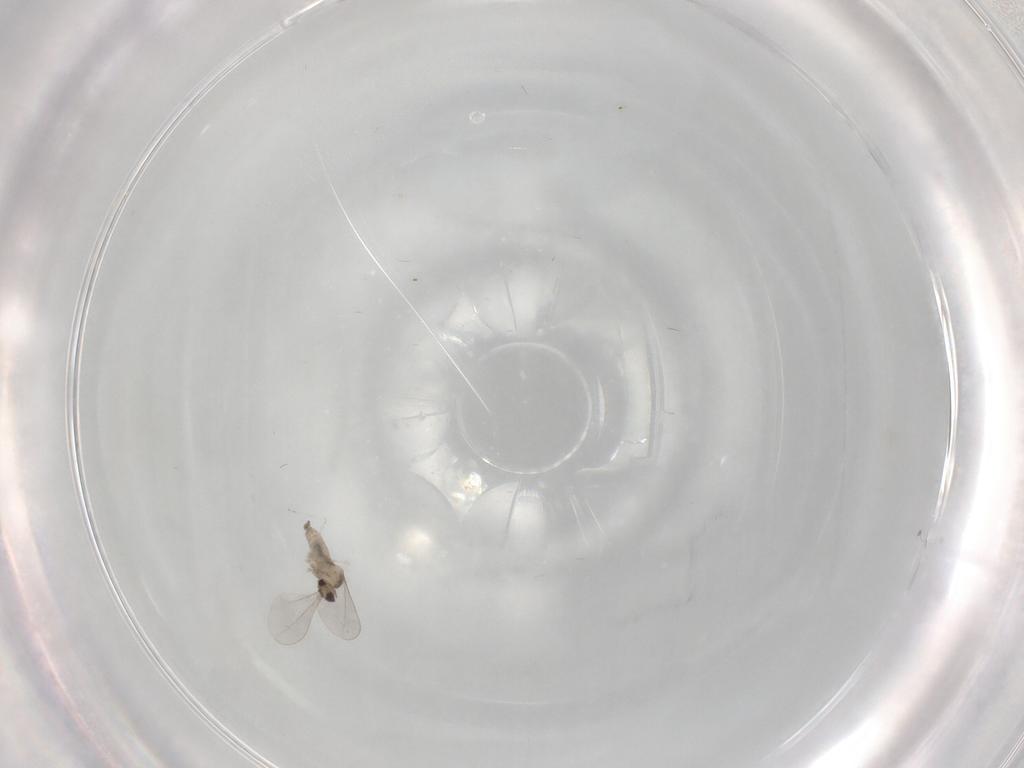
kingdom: Animalia
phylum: Arthropoda
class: Insecta
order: Diptera
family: Cecidomyiidae
